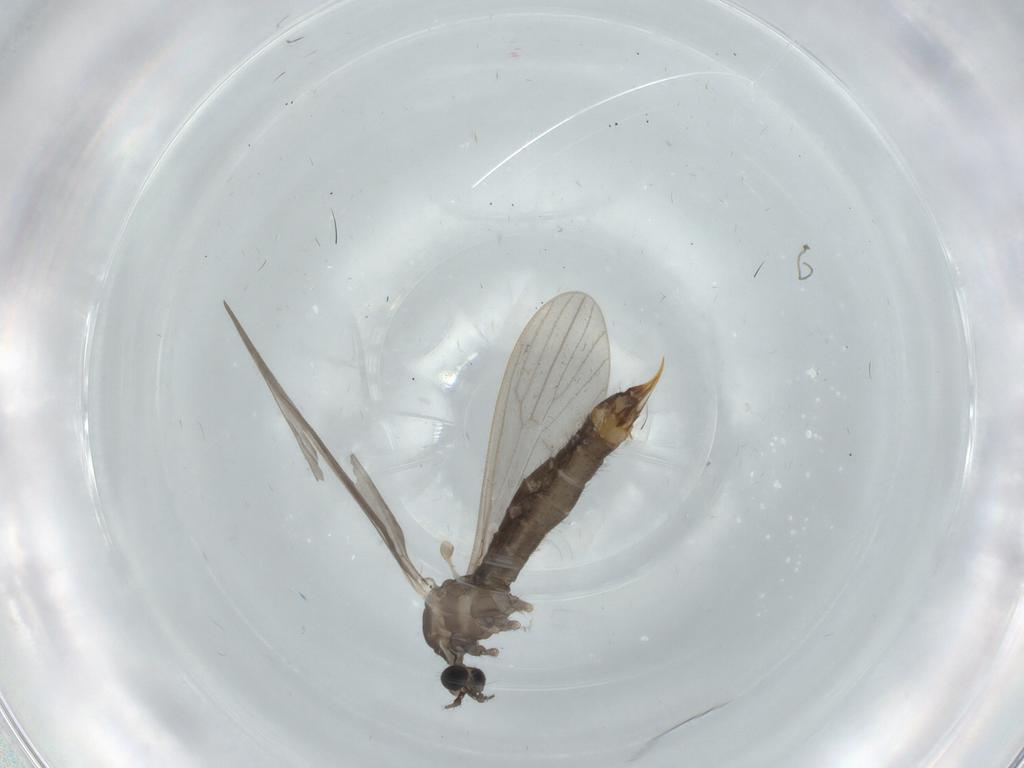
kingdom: Animalia
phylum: Arthropoda
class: Insecta
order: Diptera
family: Limoniidae
